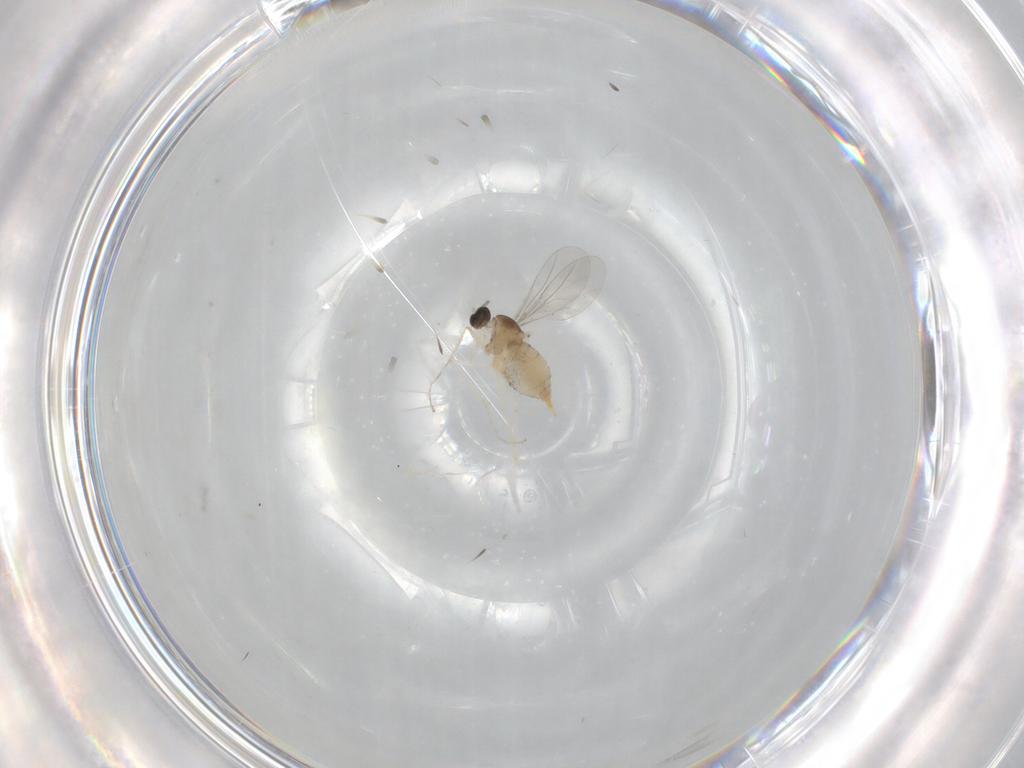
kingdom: Animalia
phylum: Arthropoda
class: Insecta
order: Diptera
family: Cecidomyiidae
